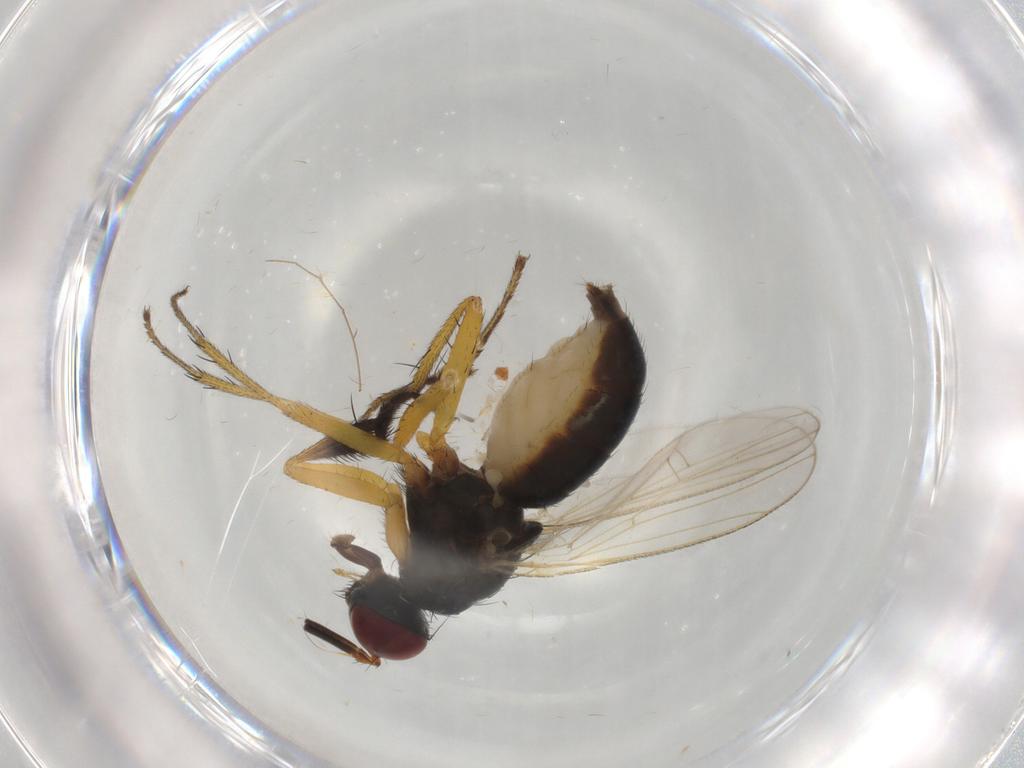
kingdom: Animalia
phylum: Arthropoda
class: Insecta
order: Diptera
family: Muscidae
